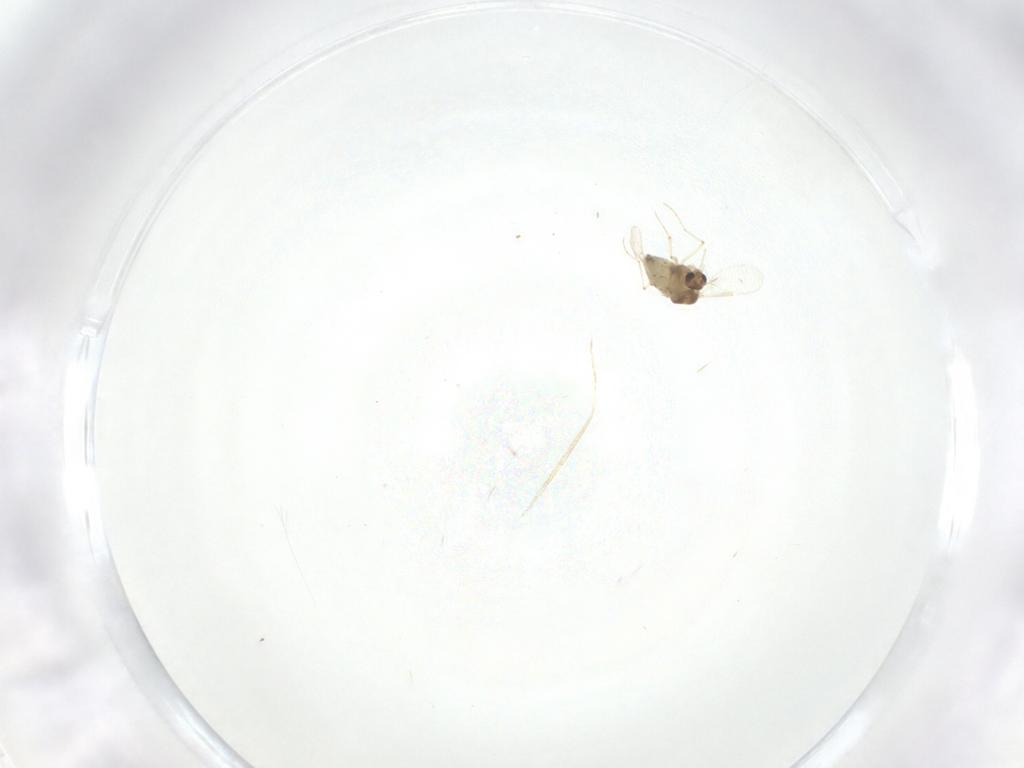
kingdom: Animalia
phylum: Arthropoda
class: Insecta
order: Diptera
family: Chironomidae
